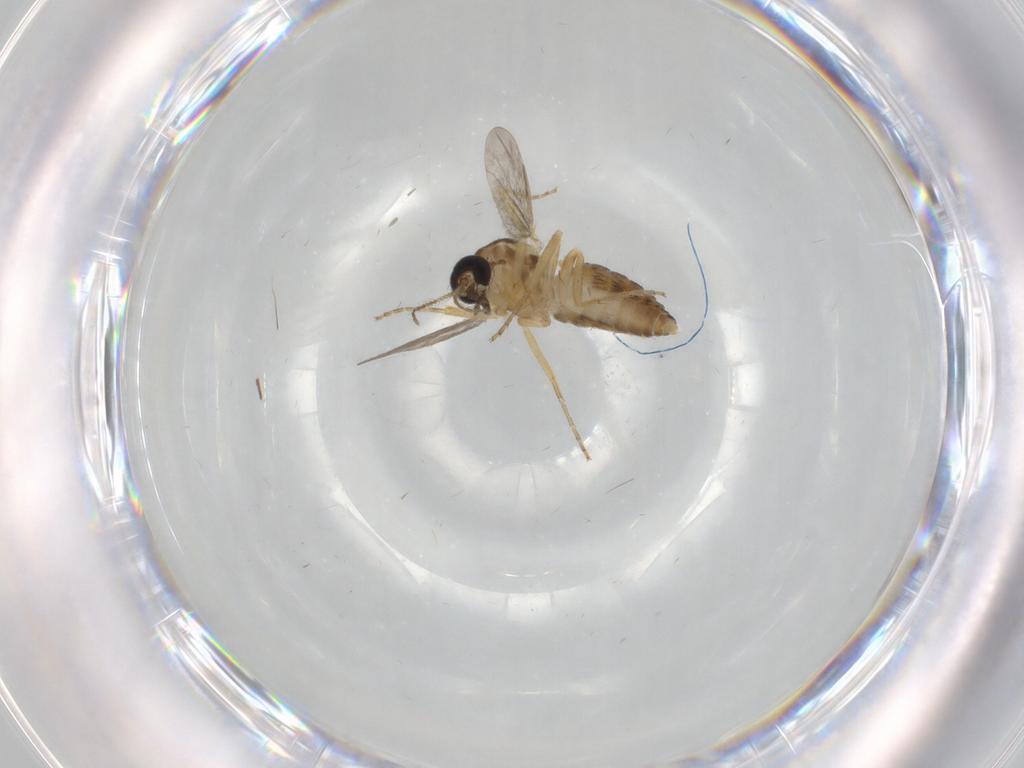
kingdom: Animalia
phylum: Arthropoda
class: Insecta
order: Diptera
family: Ceratopogonidae
